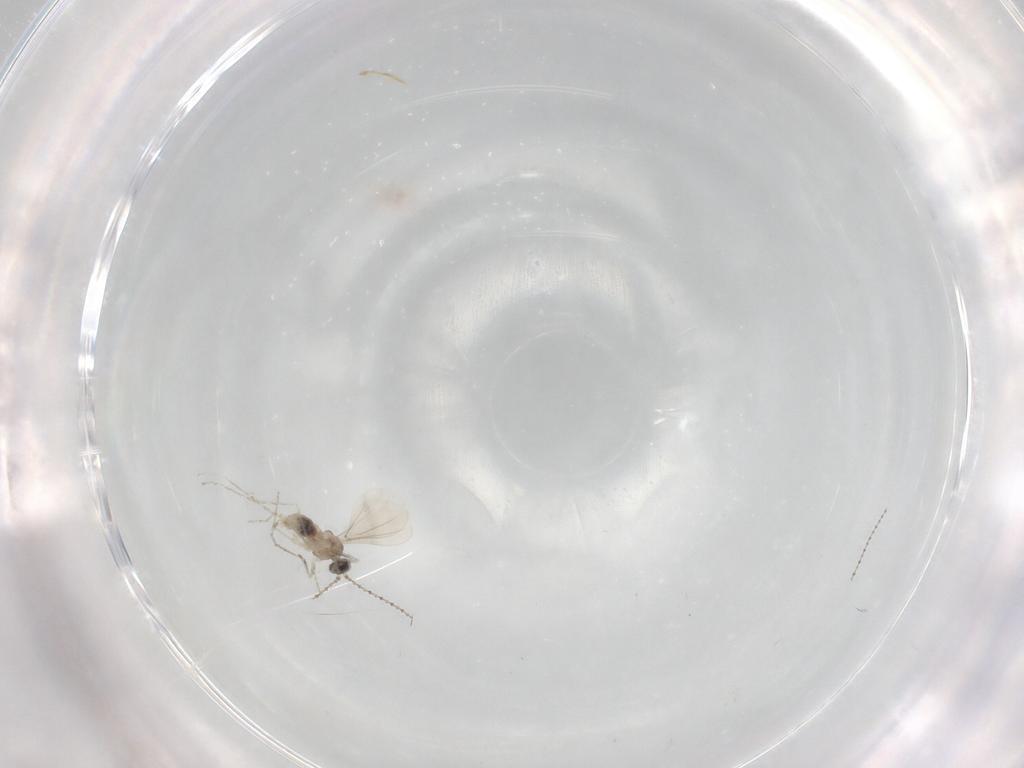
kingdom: Animalia
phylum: Arthropoda
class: Insecta
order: Diptera
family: Cecidomyiidae
